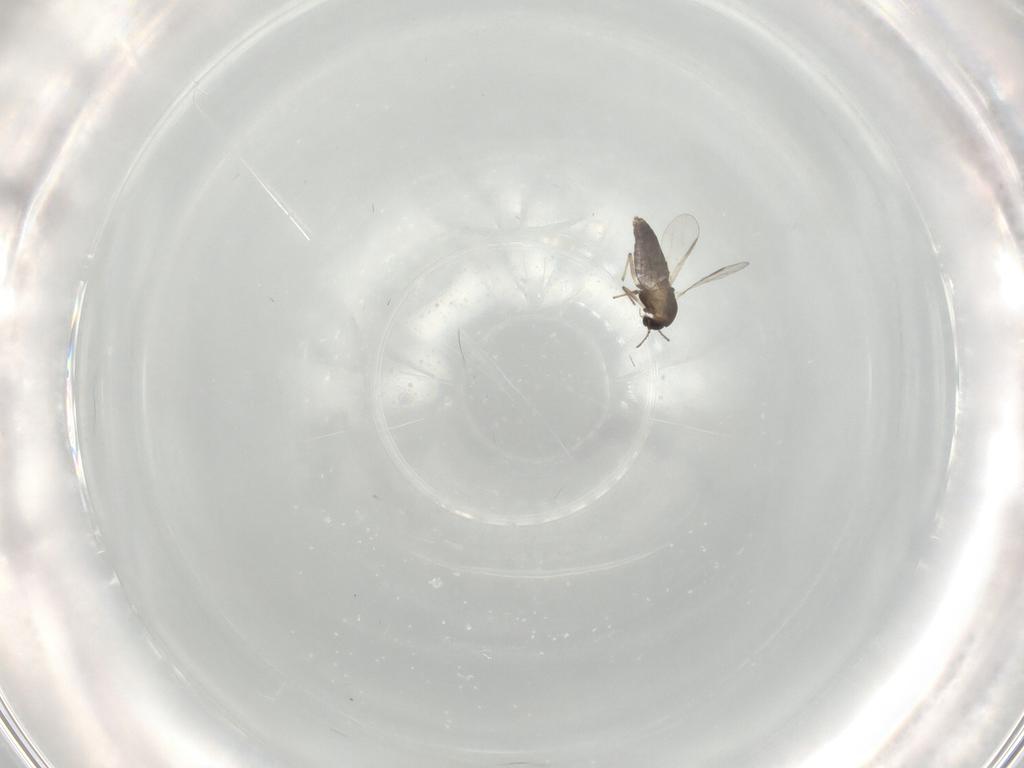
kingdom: Animalia
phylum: Arthropoda
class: Insecta
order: Diptera
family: Chironomidae
